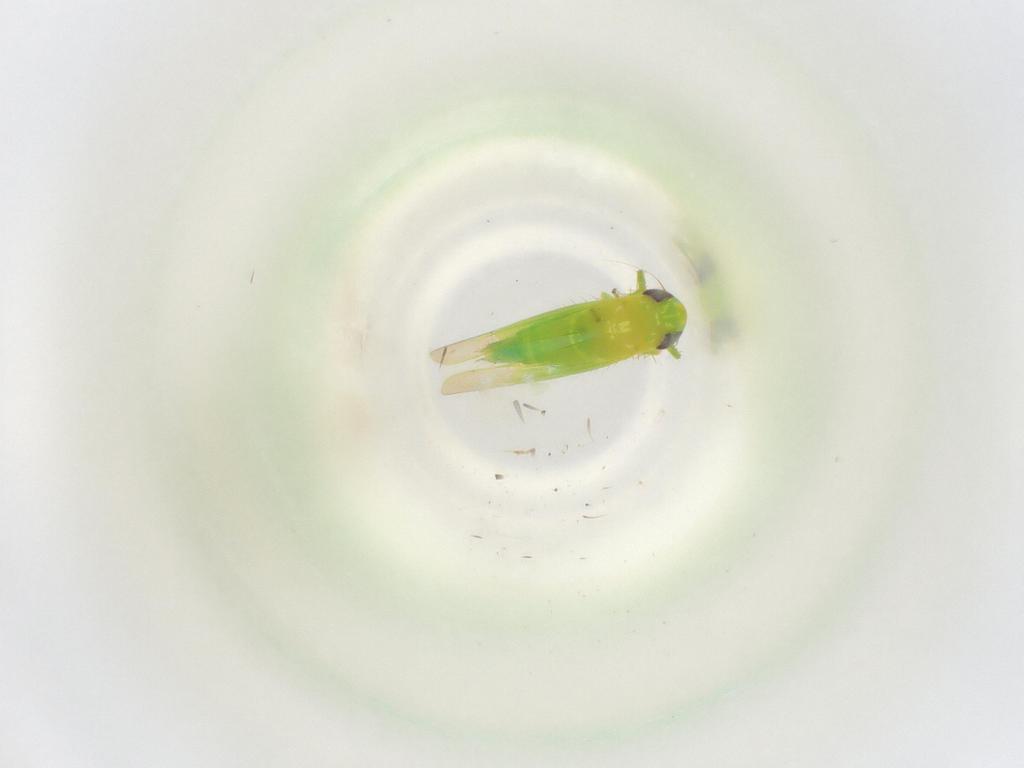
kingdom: Animalia
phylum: Arthropoda
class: Insecta
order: Hemiptera
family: Cicadellidae
